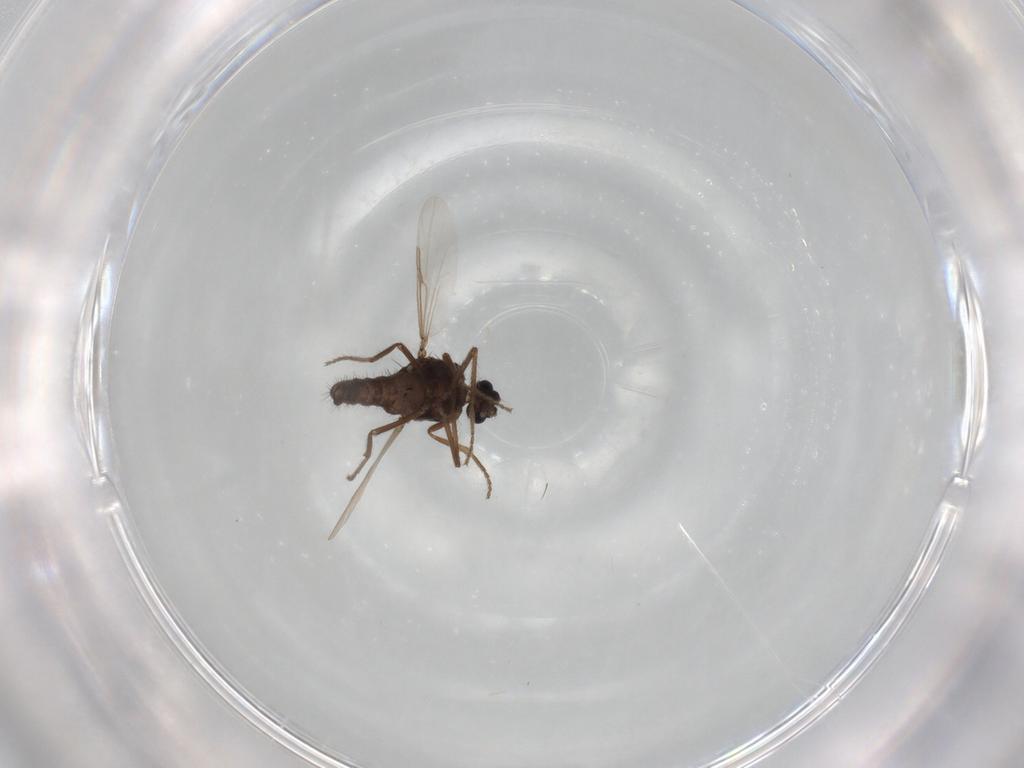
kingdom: Animalia
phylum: Arthropoda
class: Insecta
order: Diptera
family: Ceratopogonidae
